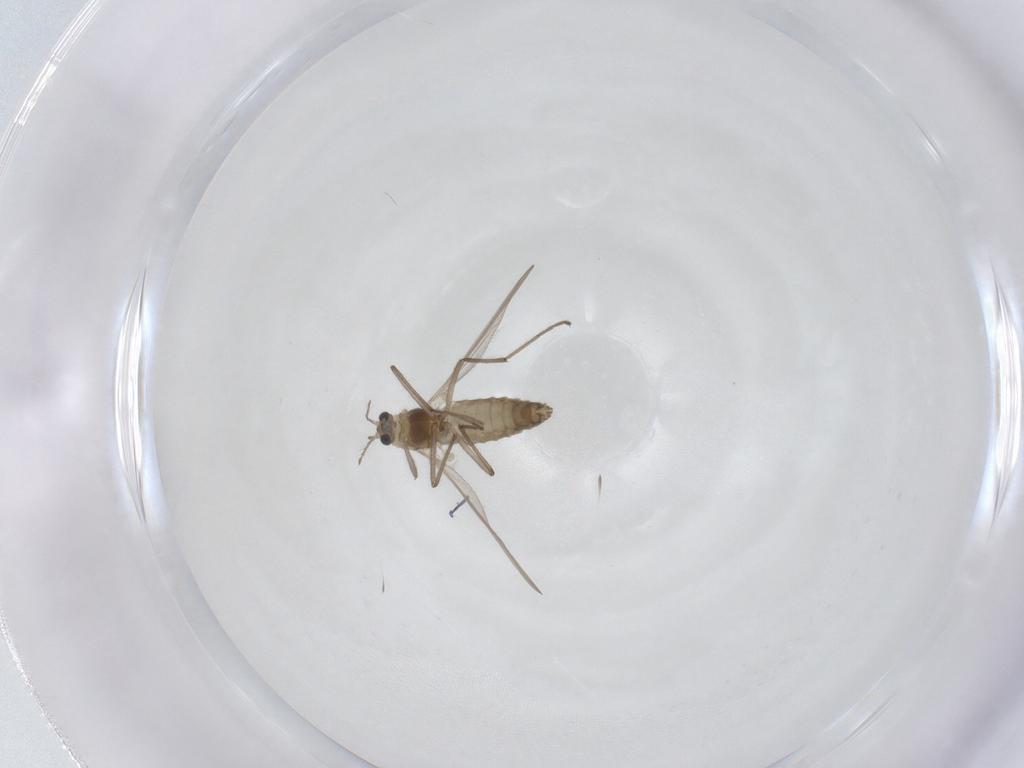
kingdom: Animalia
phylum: Arthropoda
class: Insecta
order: Diptera
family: Chironomidae
